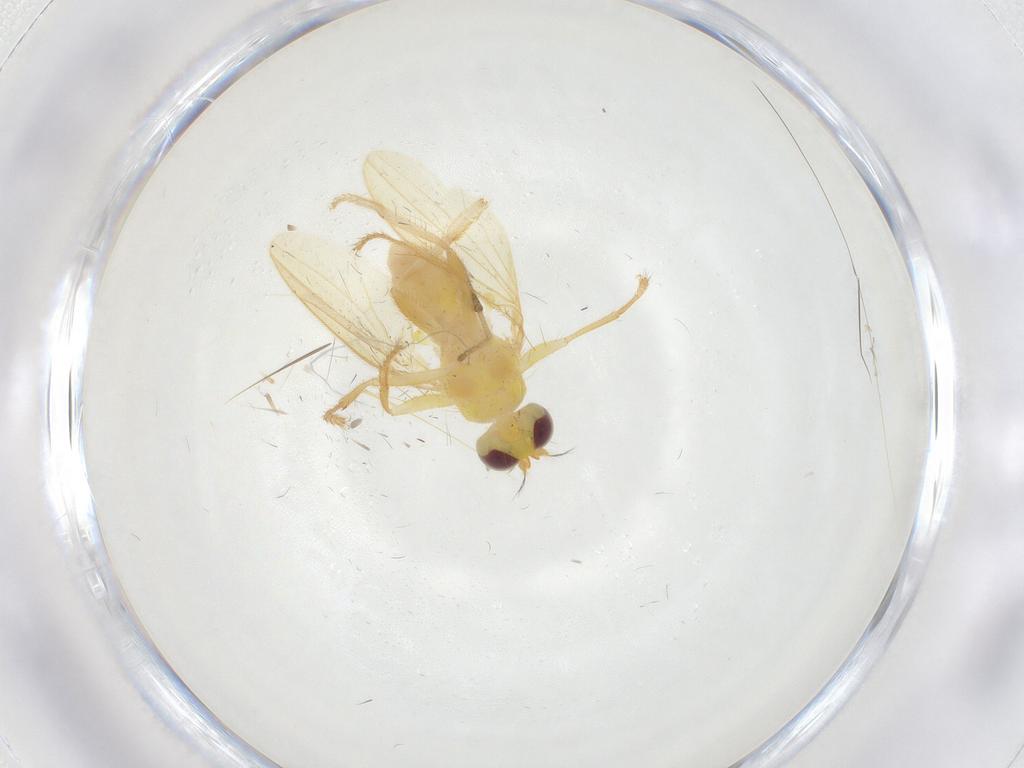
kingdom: Animalia
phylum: Arthropoda
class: Insecta
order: Diptera
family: Periscelididae
